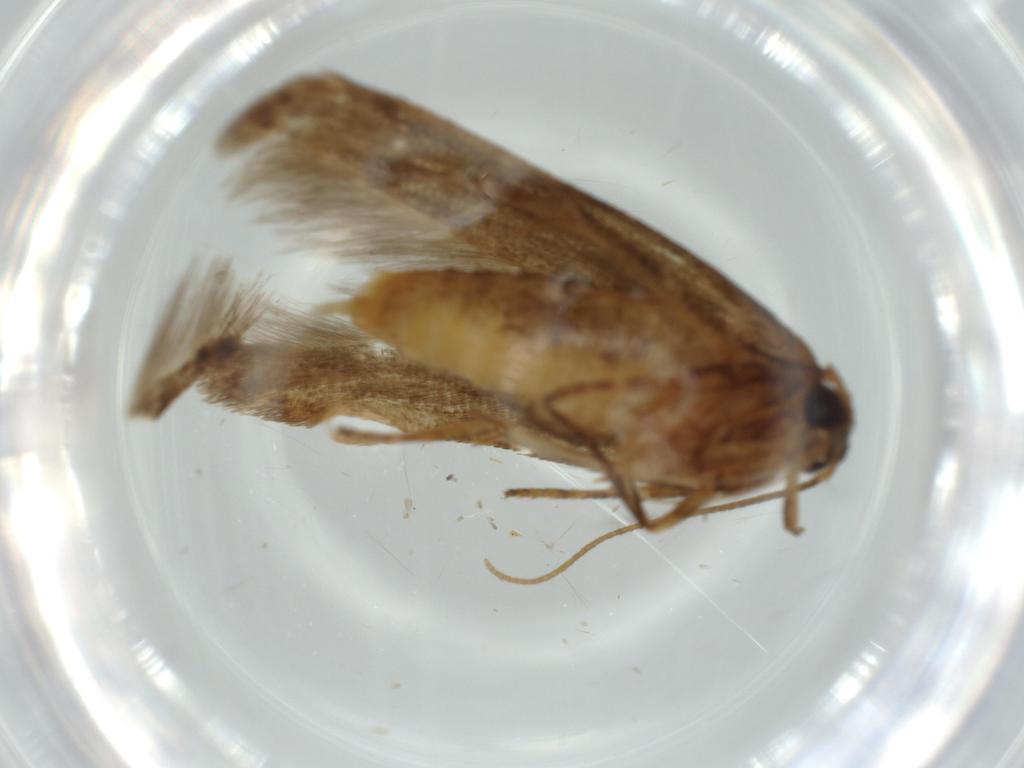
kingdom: Animalia
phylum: Arthropoda
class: Insecta
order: Lepidoptera
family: Coleophoridae
